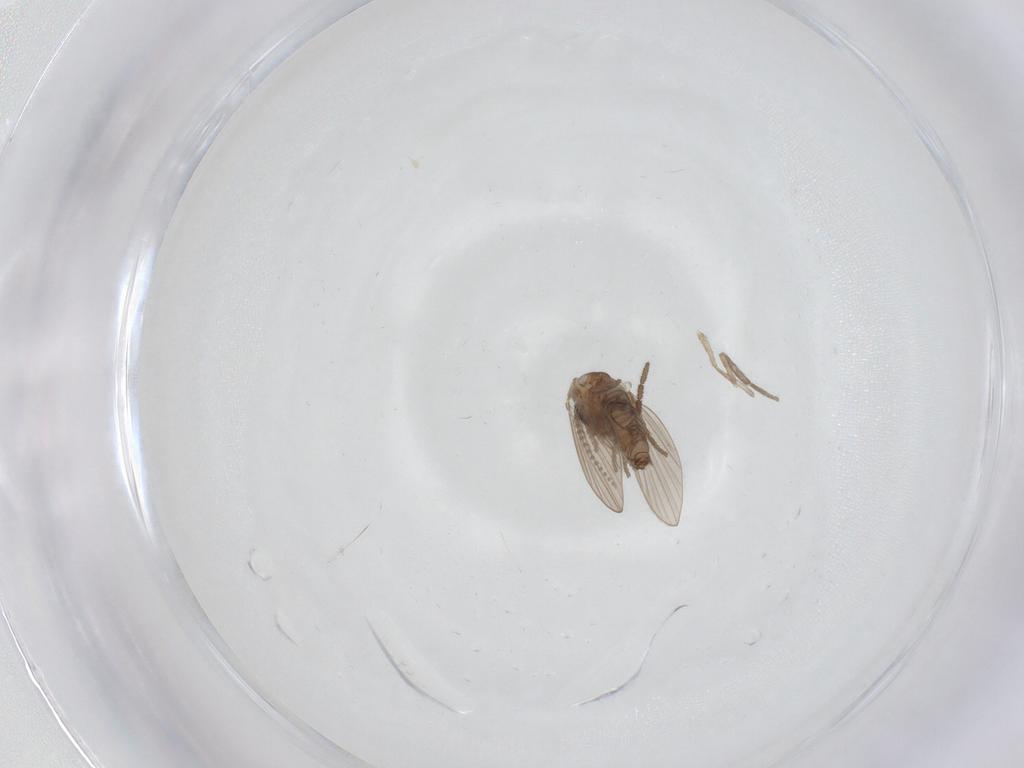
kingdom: Animalia
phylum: Arthropoda
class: Insecta
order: Diptera
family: Psychodidae
